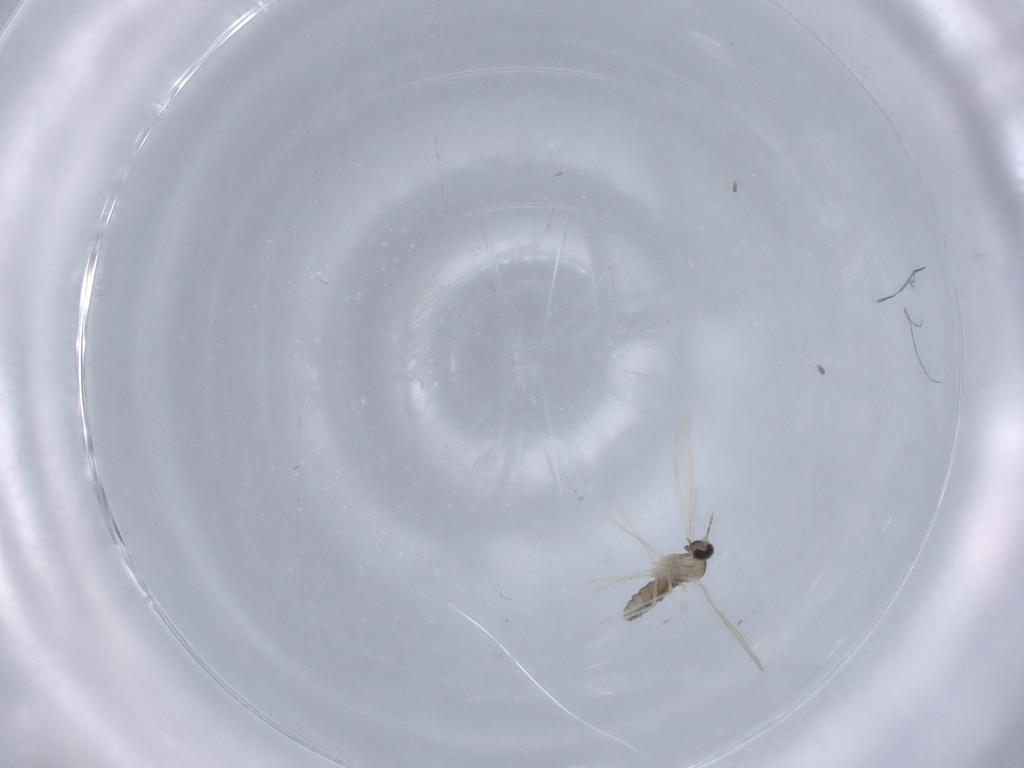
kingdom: Animalia
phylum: Arthropoda
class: Insecta
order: Diptera
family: Cecidomyiidae
